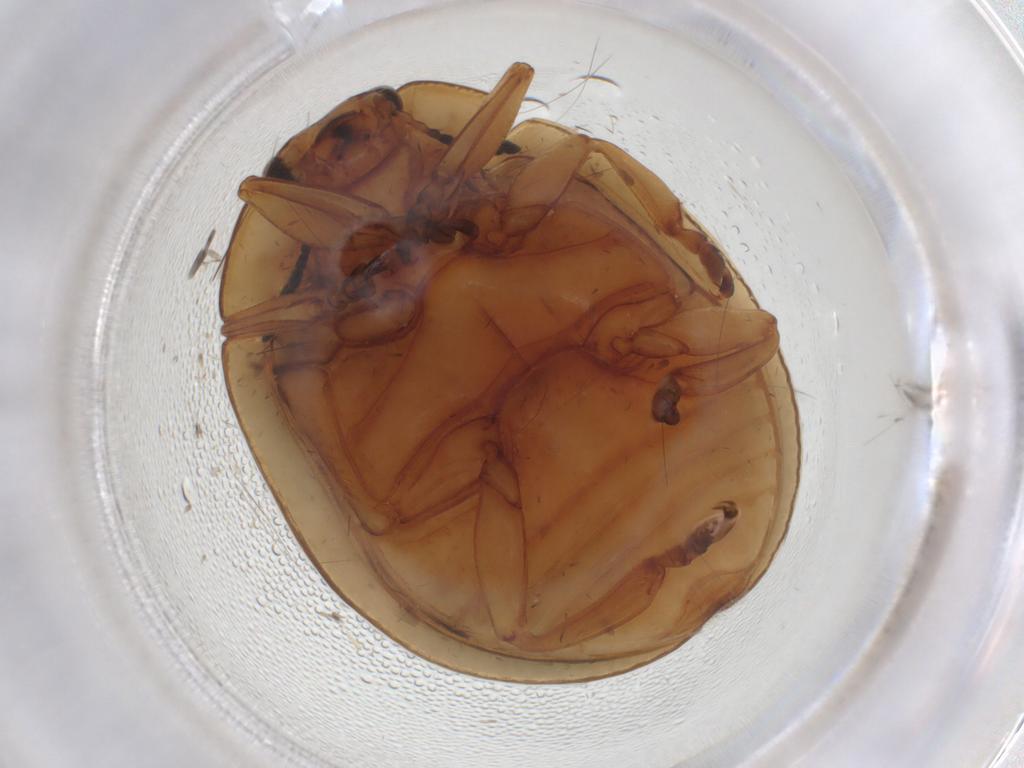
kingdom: Animalia
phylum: Arthropoda
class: Insecta
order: Coleoptera
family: Chrysomelidae
